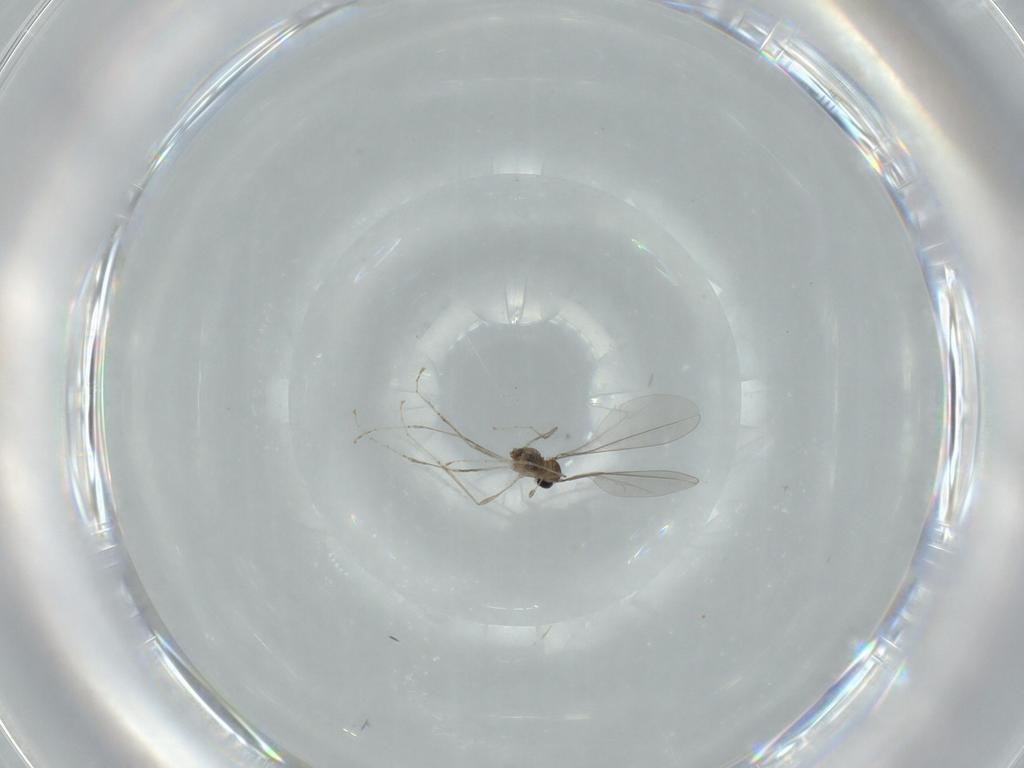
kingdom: Animalia
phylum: Arthropoda
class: Insecta
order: Diptera
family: Cecidomyiidae
